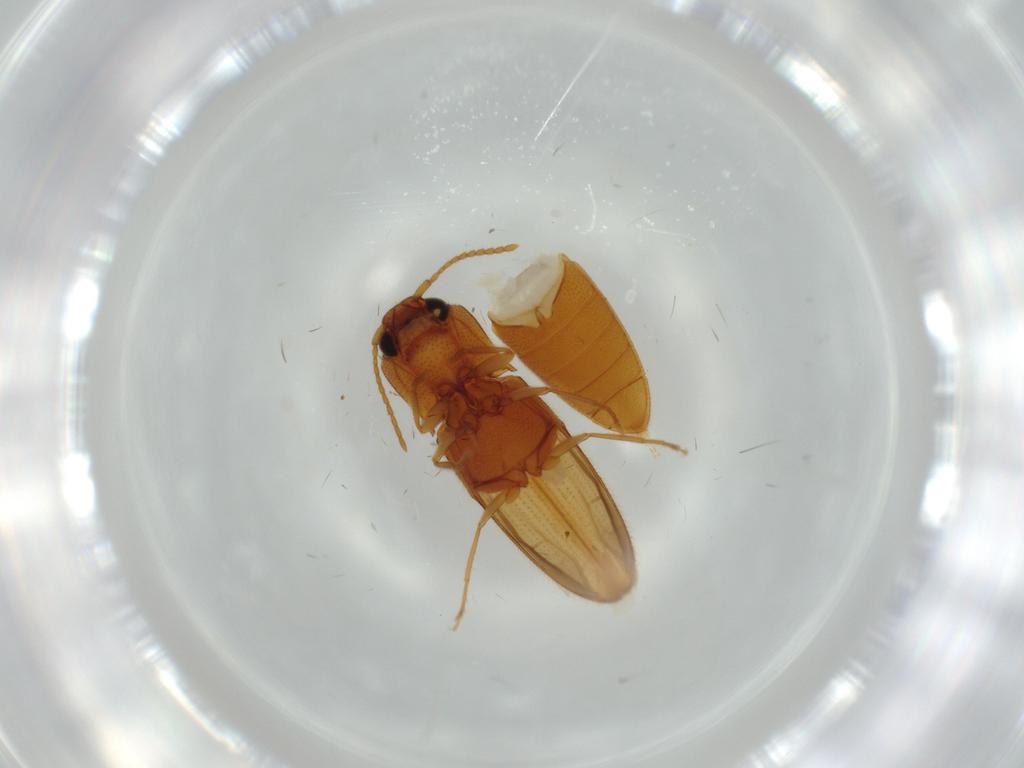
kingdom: Animalia
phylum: Arthropoda
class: Insecta
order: Coleoptera
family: Elateridae
